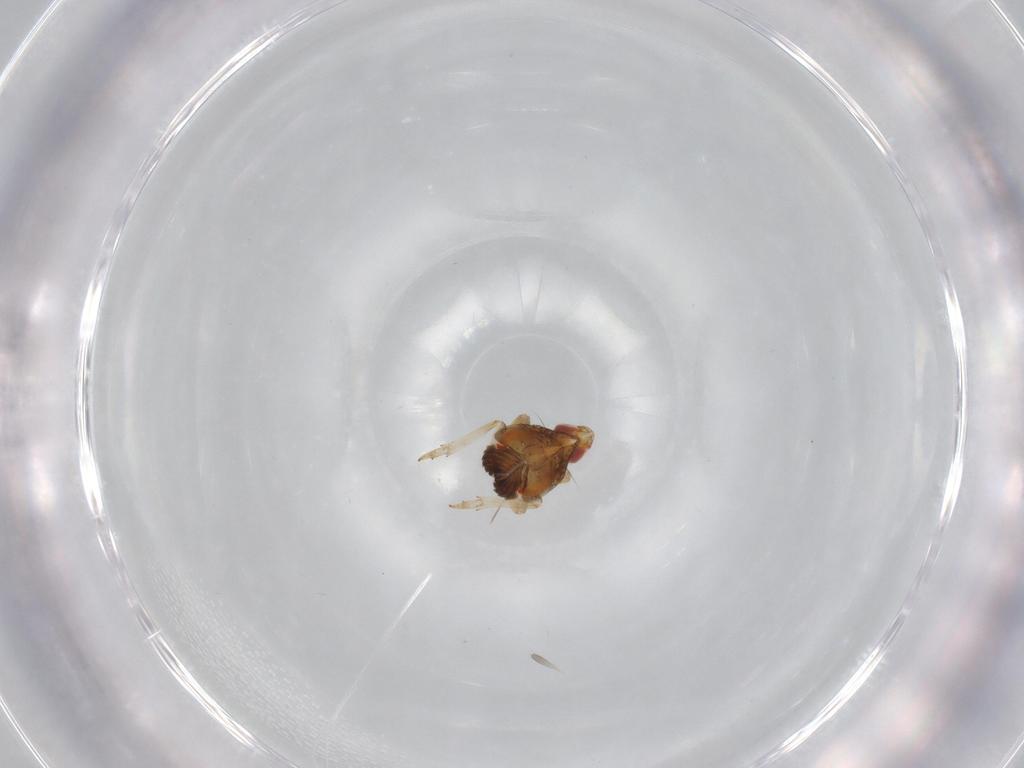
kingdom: Animalia
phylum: Arthropoda
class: Insecta
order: Hemiptera
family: Issidae
